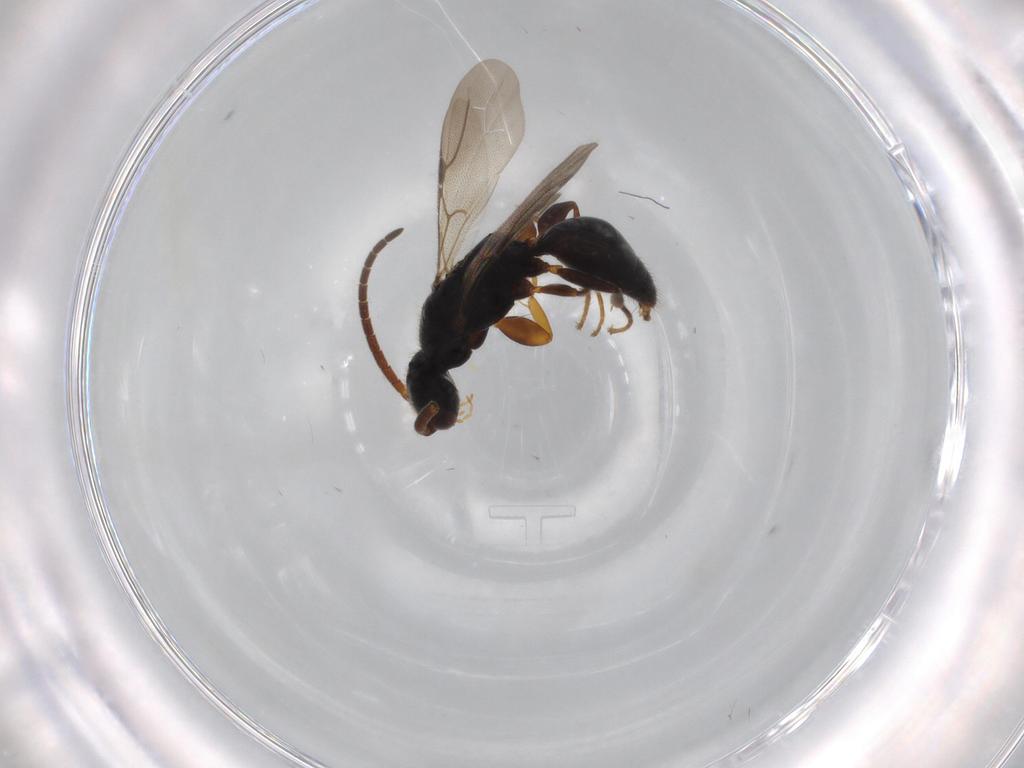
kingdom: Animalia
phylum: Arthropoda
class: Insecta
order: Hymenoptera
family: Bethylidae
